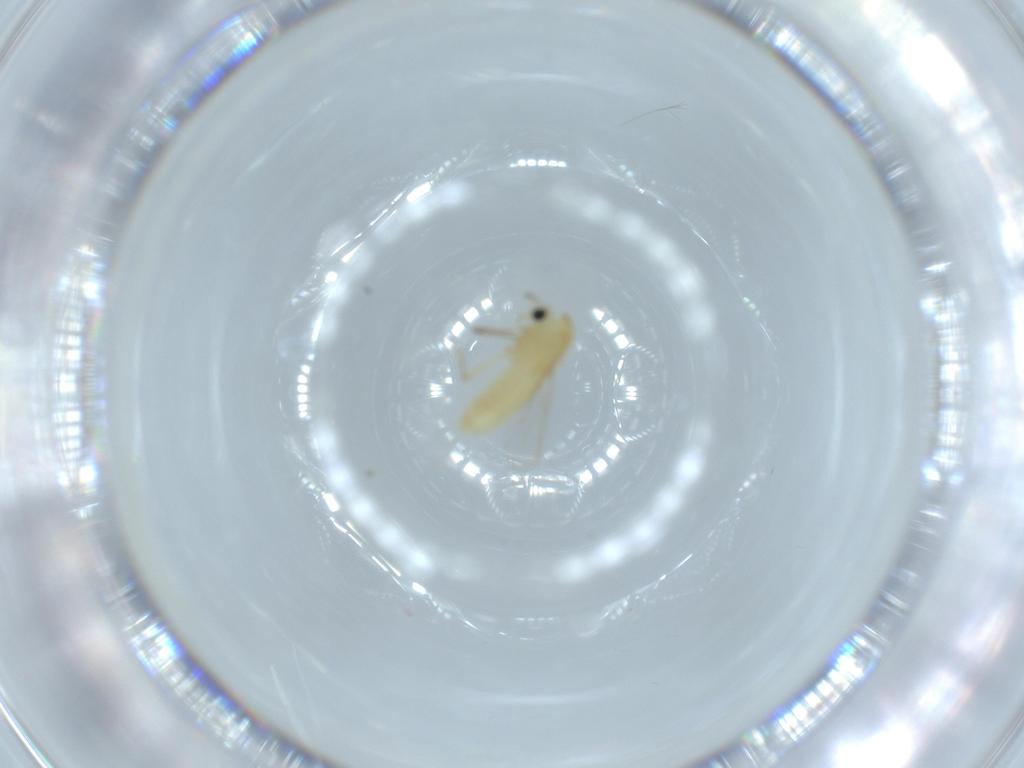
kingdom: Animalia
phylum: Arthropoda
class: Insecta
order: Diptera
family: Chironomidae
